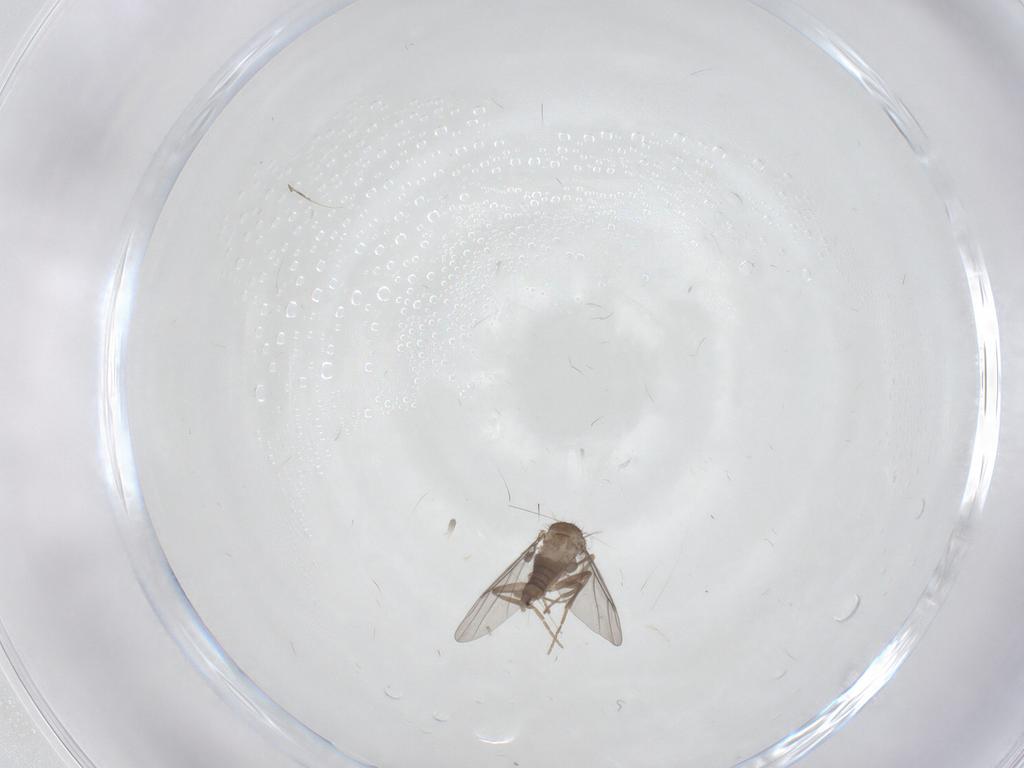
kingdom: Animalia
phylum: Arthropoda
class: Insecta
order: Diptera
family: Cecidomyiidae
